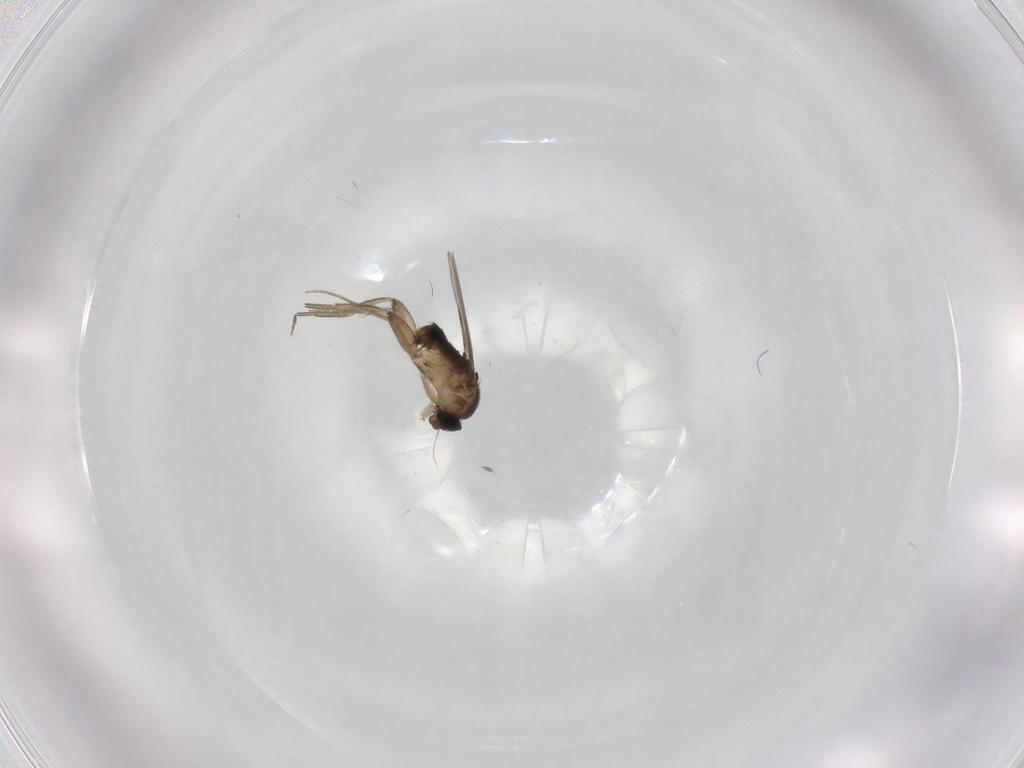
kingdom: Animalia
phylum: Arthropoda
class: Insecta
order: Diptera
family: Phoridae
